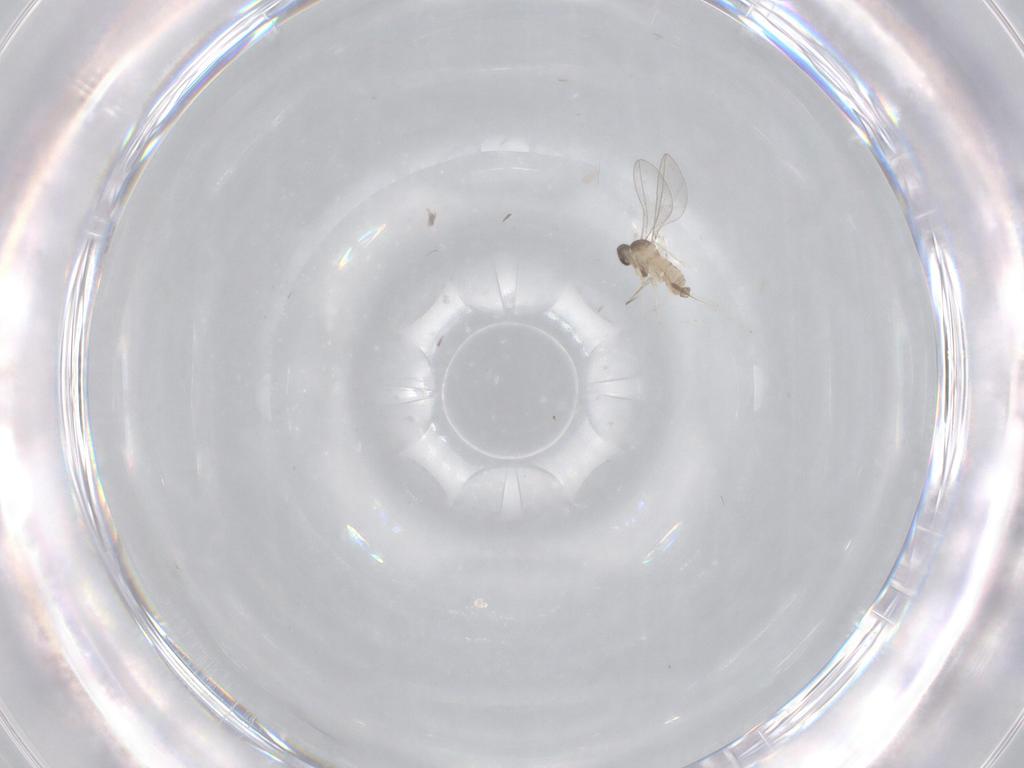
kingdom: Animalia
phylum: Arthropoda
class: Insecta
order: Diptera
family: Cecidomyiidae
